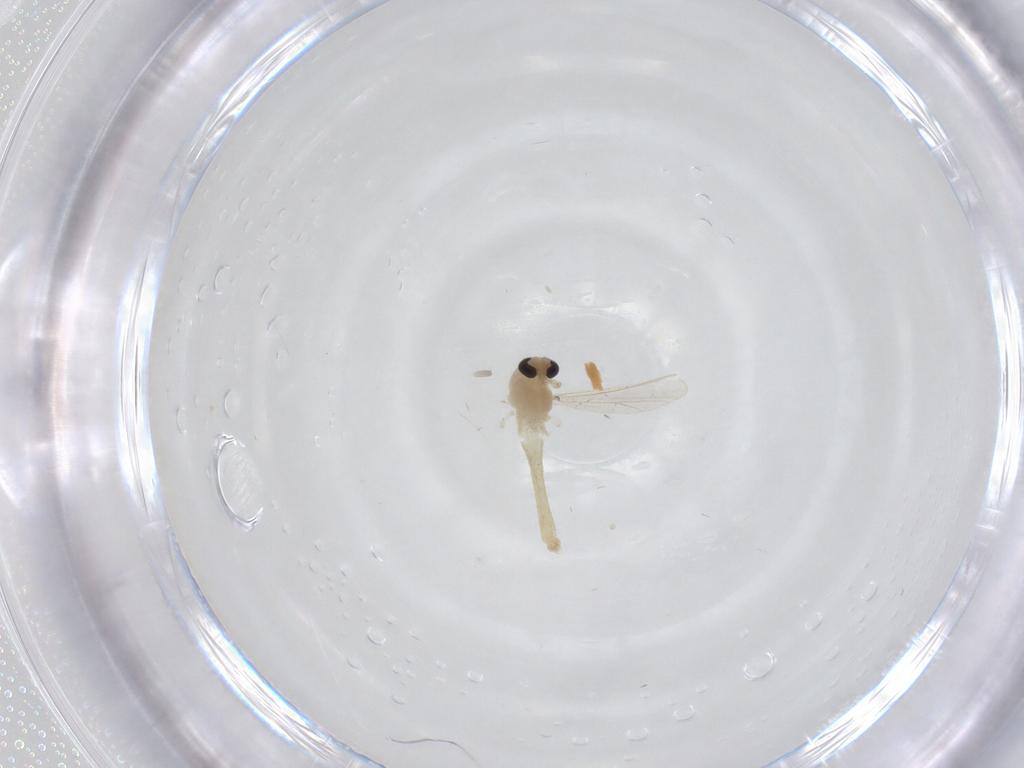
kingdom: Animalia
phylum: Arthropoda
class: Insecta
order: Diptera
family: Chironomidae
